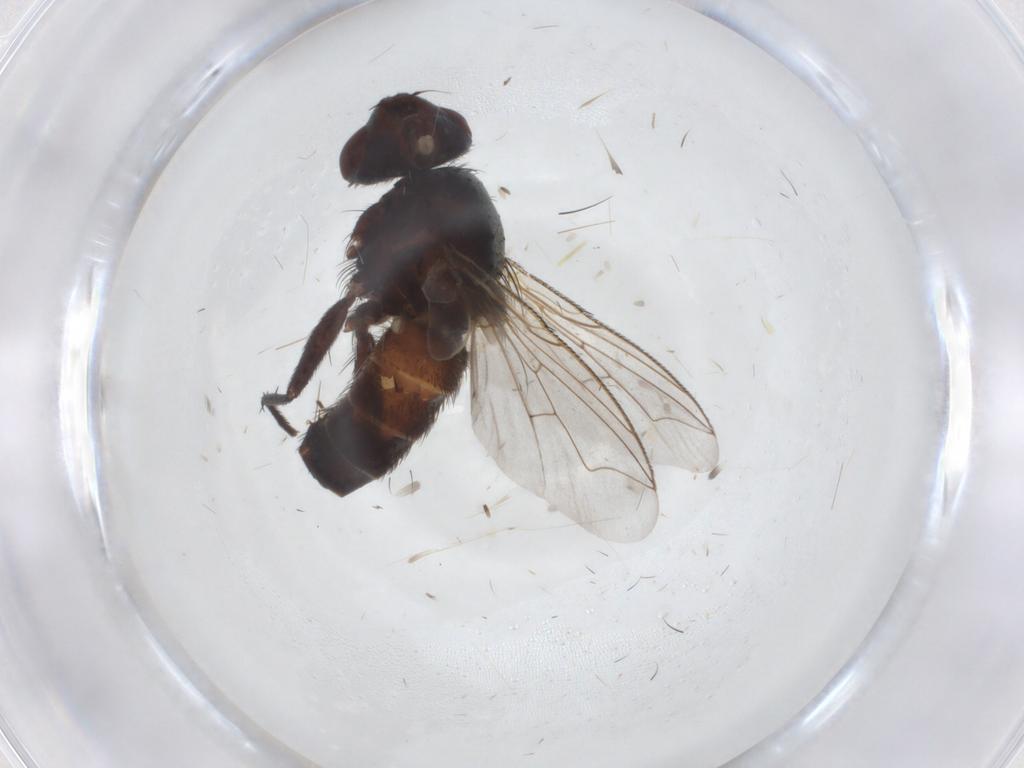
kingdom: Animalia
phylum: Arthropoda
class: Insecta
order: Diptera
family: Sarcophagidae
